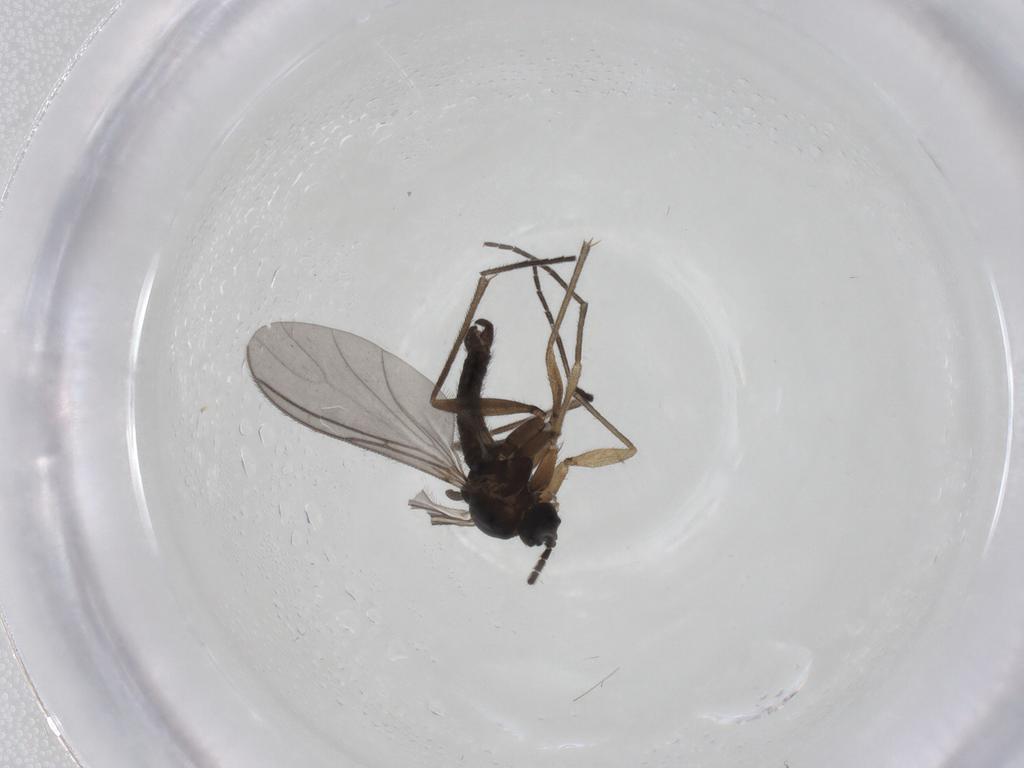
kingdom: Animalia
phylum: Arthropoda
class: Insecta
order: Diptera
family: Sciaridae
